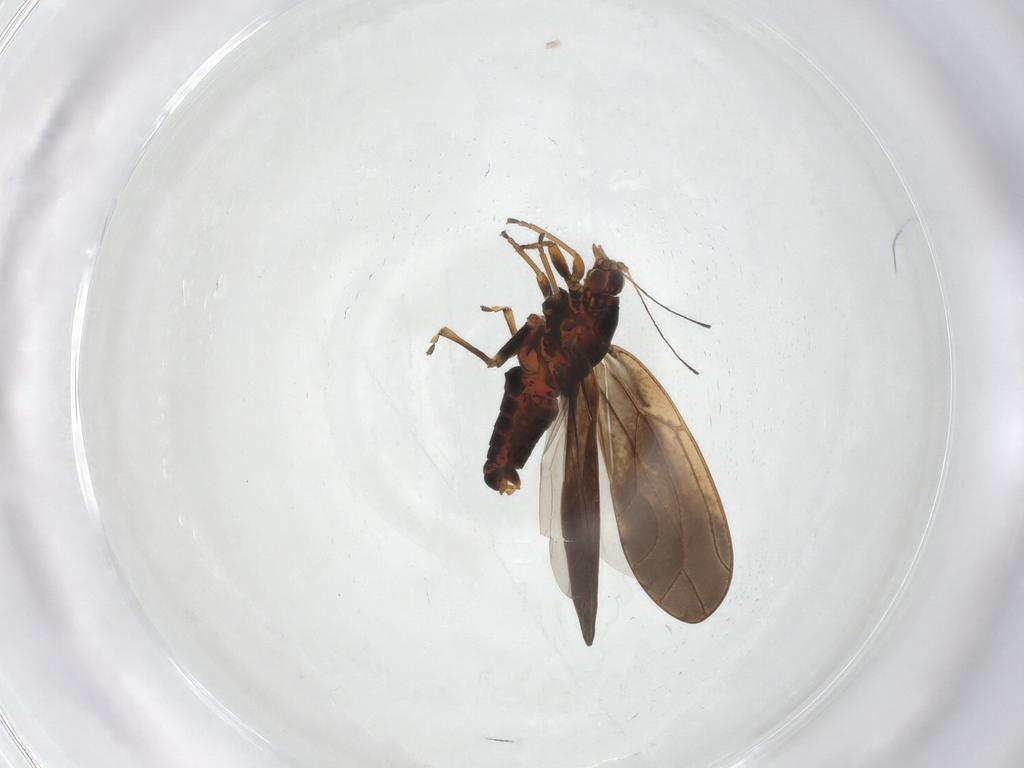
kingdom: Animalia
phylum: Arthropoda
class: Insecta
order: Hemiptera
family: Triozidae
